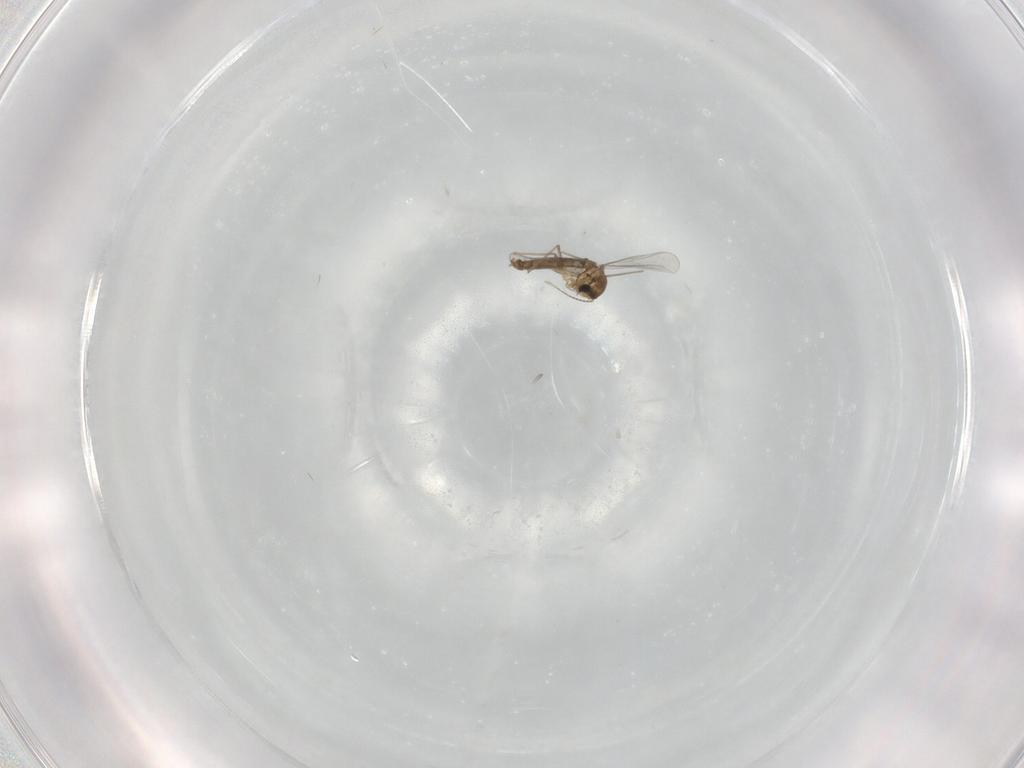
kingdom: Animalia
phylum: Arthropoda
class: Insecta
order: Diptera
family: Chironomidae
